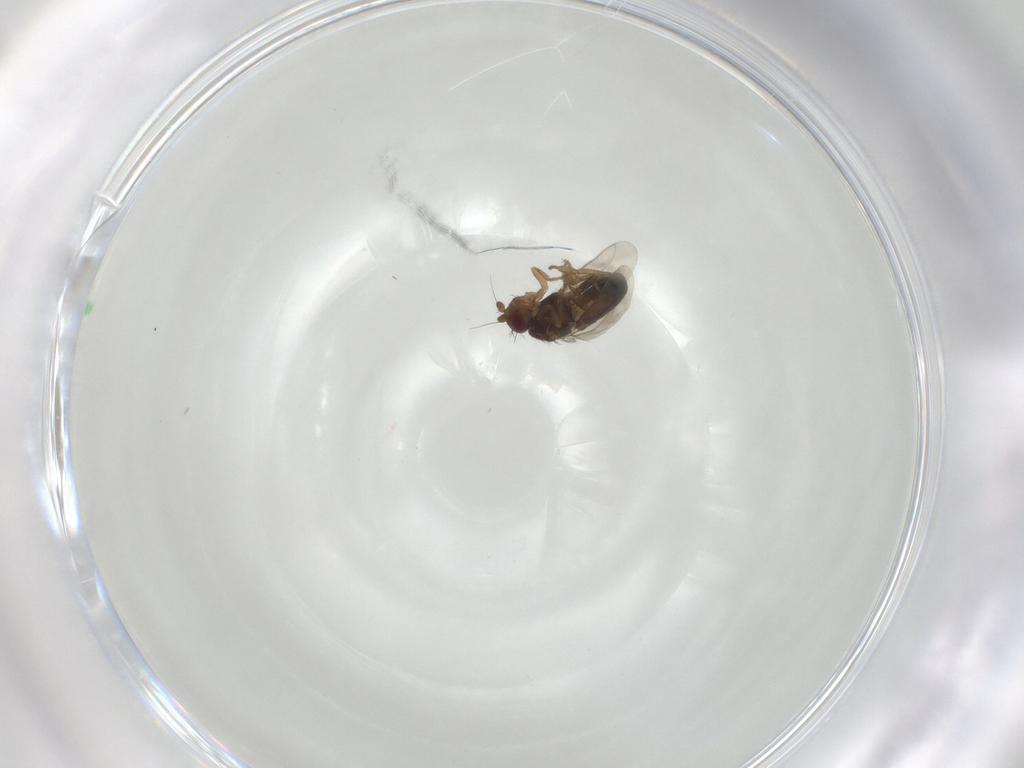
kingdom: Animalia
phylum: Arthropoda
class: Insecta
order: Diptera
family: Sphaeroceridae
